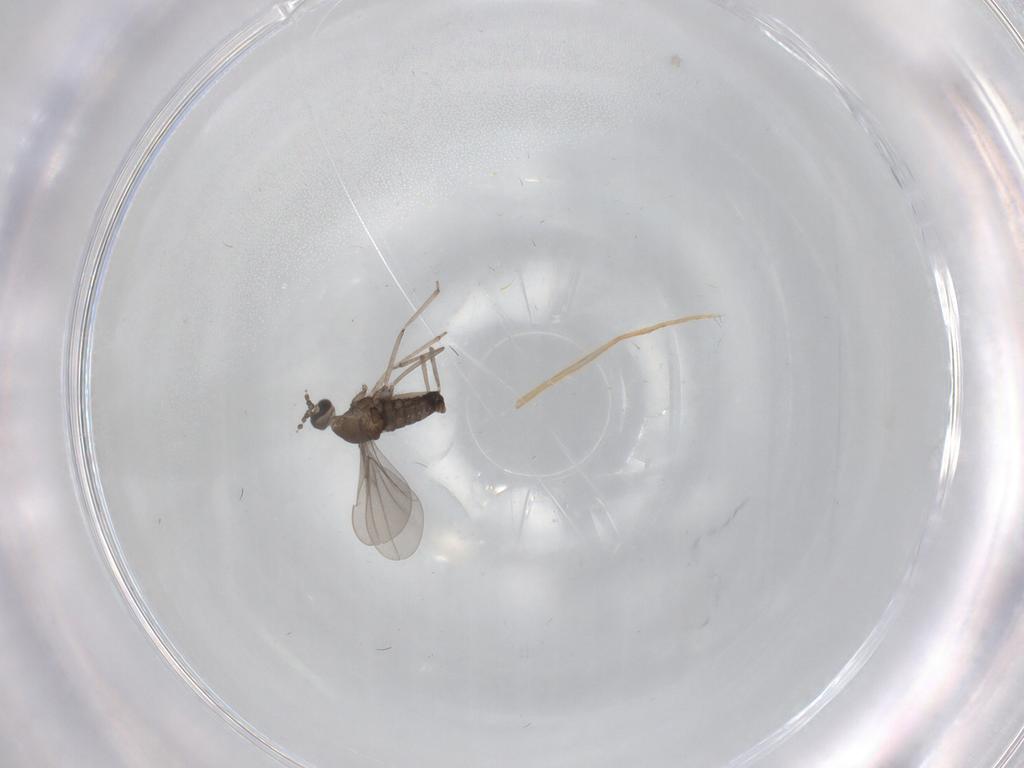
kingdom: Animalia
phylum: Arthropoda
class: Insecta
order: Diptera
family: Cecidomyiidae
